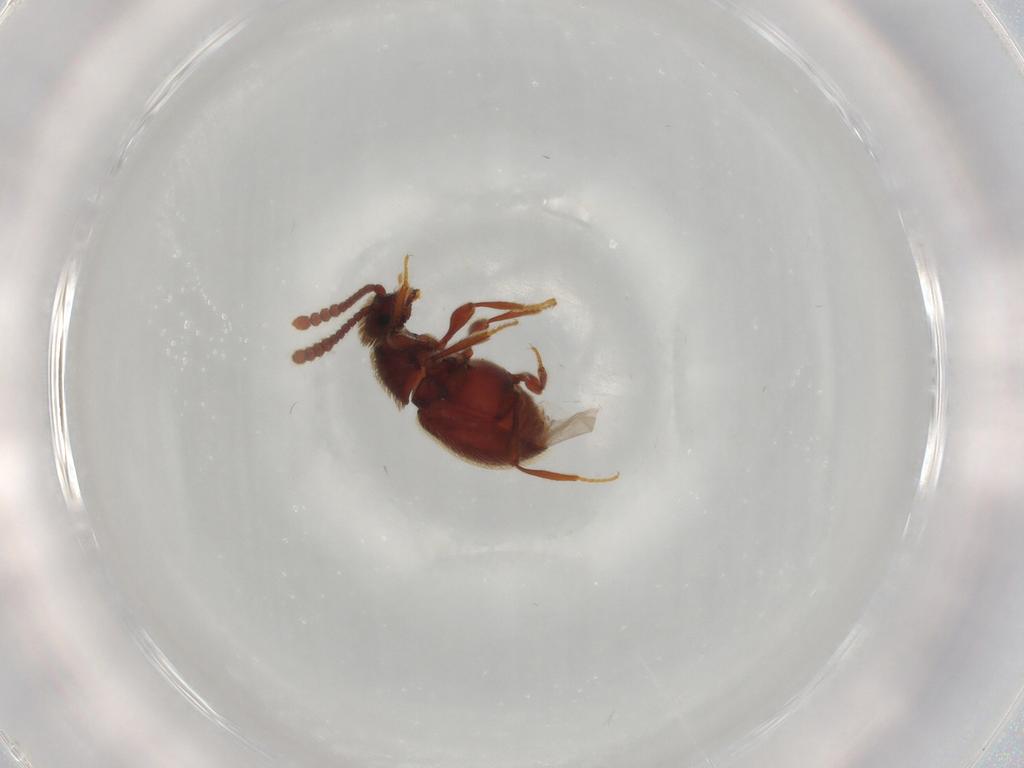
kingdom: Animalia
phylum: Arthropoda
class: Insecta
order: Coleoptera
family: Staphylinidae
